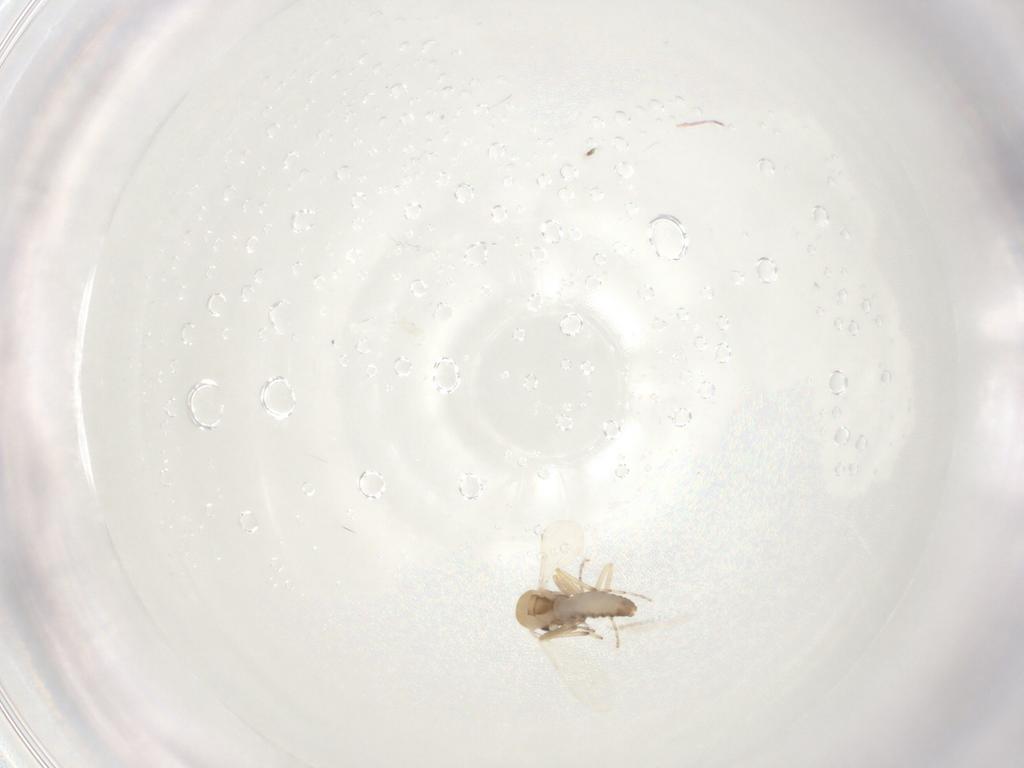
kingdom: Animalia
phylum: Arthropoda
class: Insecta
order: Diptera
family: Ceratopogonidae
